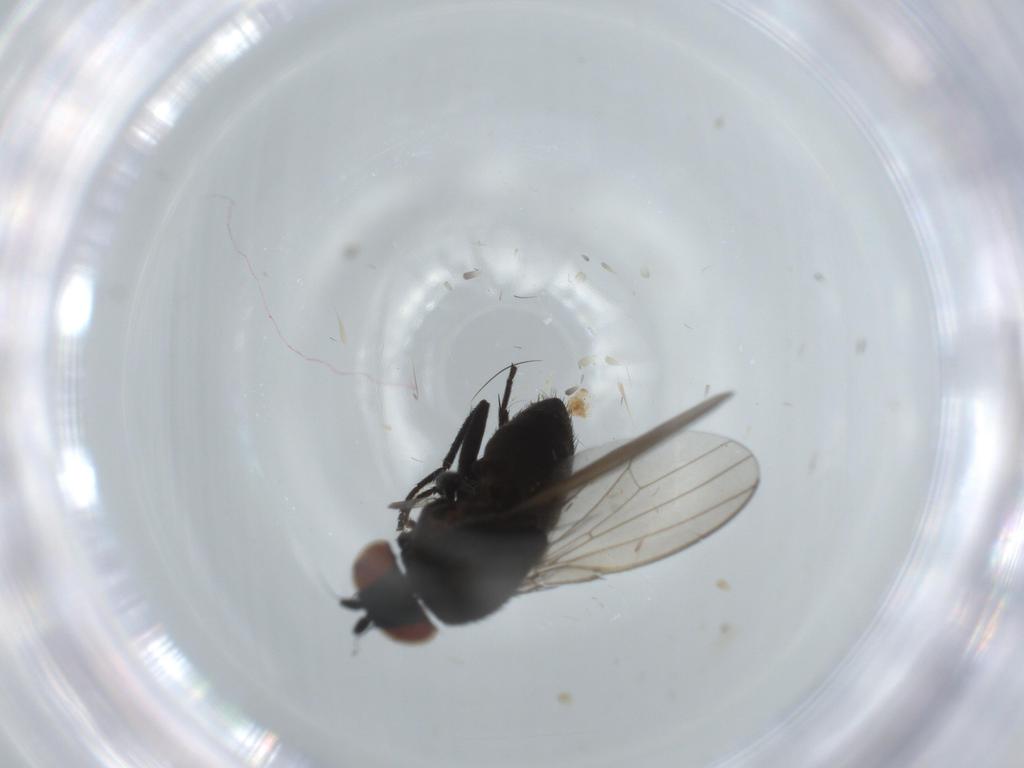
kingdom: Animalia
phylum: Arthropoda
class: Insecta
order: Diptera
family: Milichiidae
